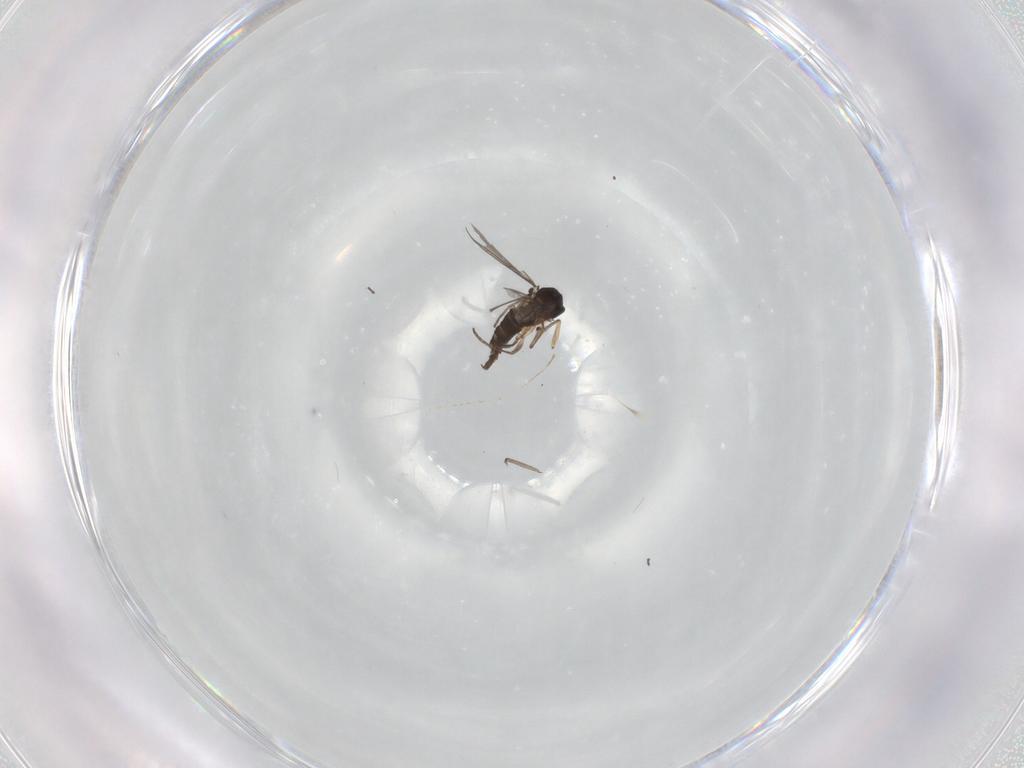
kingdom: Animalia
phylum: Arthropoda
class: Insecta
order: Diptera
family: Sciaridae
